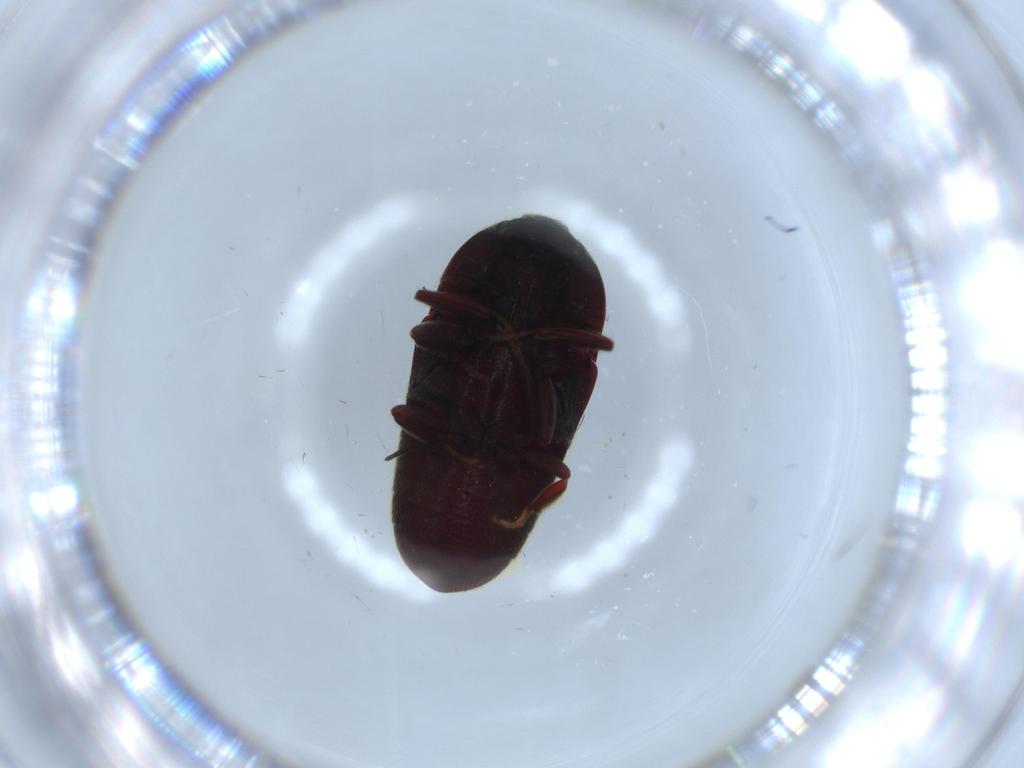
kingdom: Animalia
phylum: Arthropoda
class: Insecta
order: Coleoptera
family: Throscidae
